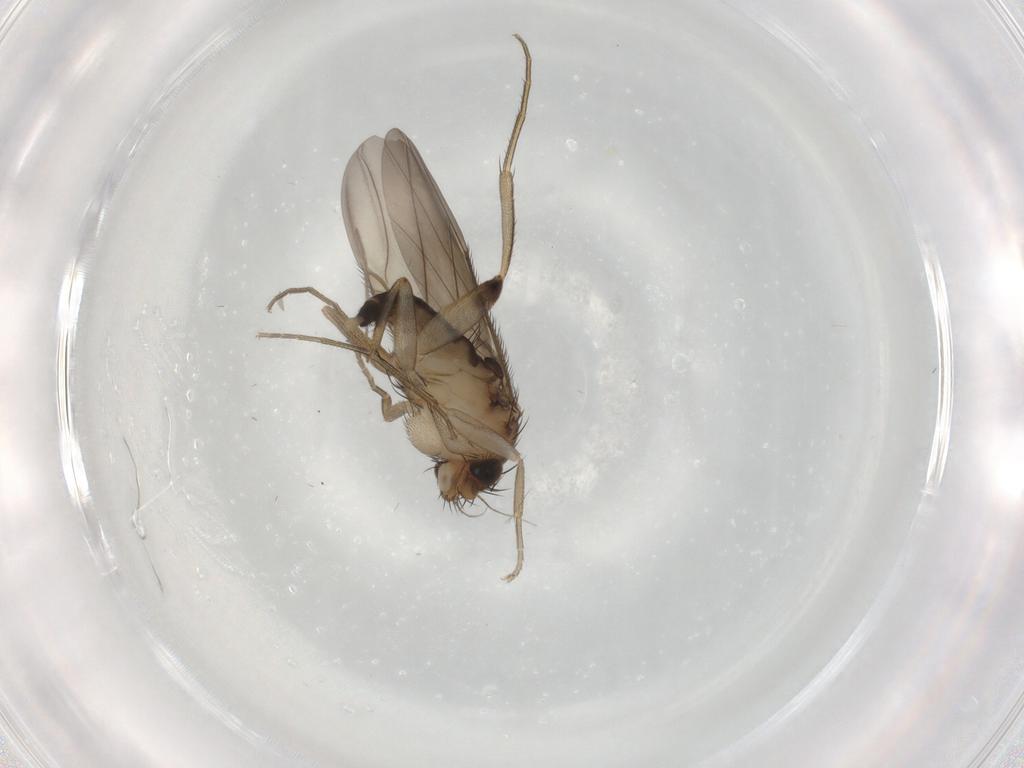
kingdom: Animalia
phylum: Arthropoda
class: Insecta
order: Diptera
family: Phoridae
